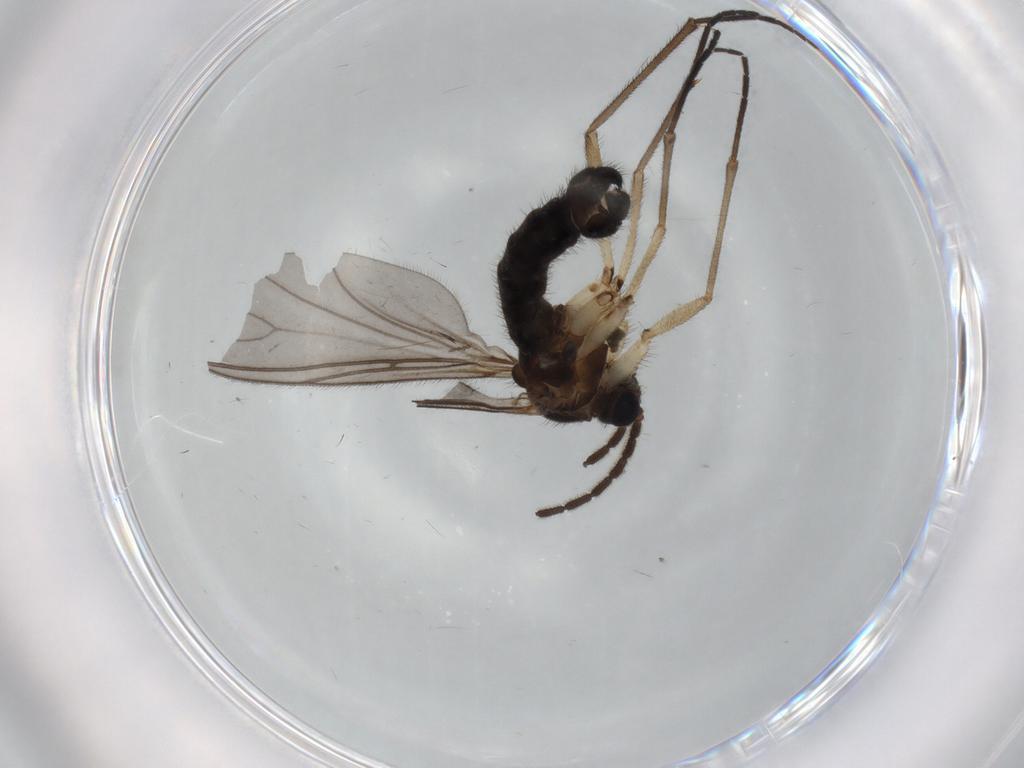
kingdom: Animalia
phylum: Arthropoda
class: Insecta
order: Diptera
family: Sciaridae
